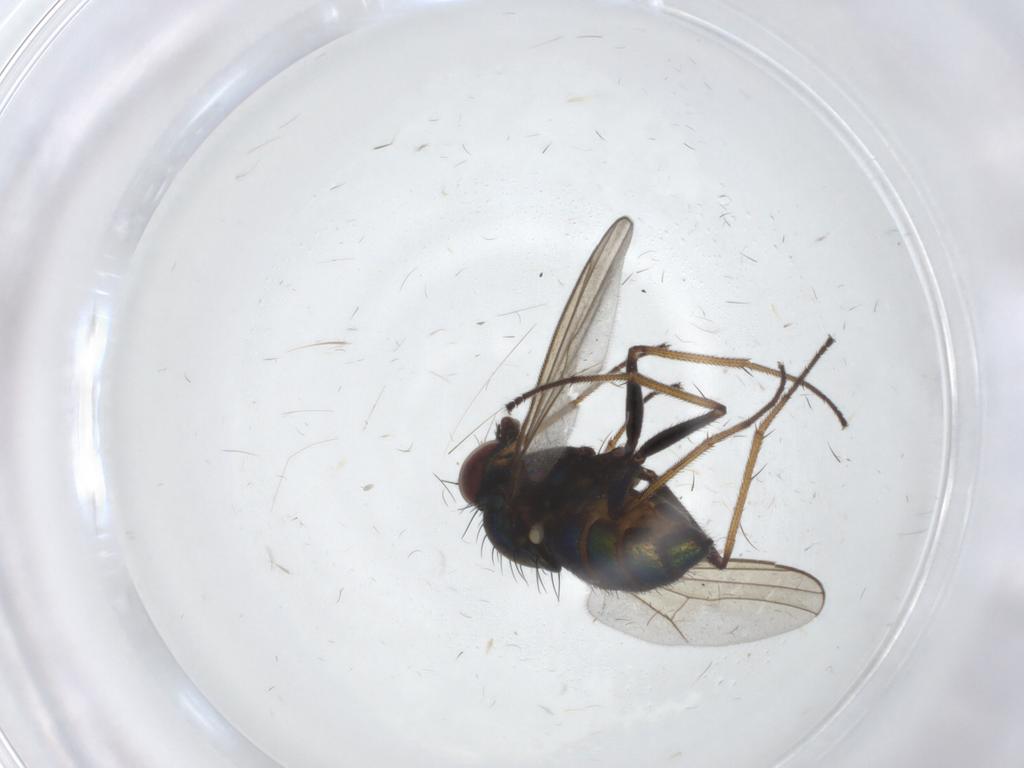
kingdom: Animalia
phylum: Arthropoda
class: Insecta
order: Diptera
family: Dolichopodidae
